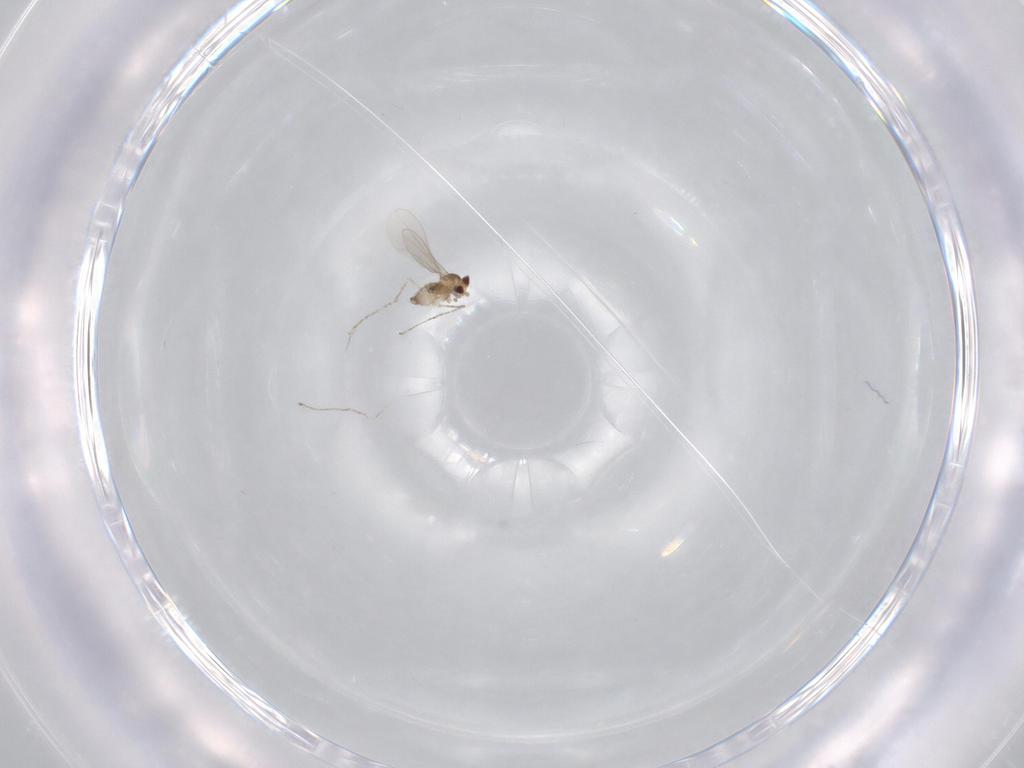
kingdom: Animalia
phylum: Arthropoda
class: Insecta
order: Diptera
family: Cecidomyiidae
